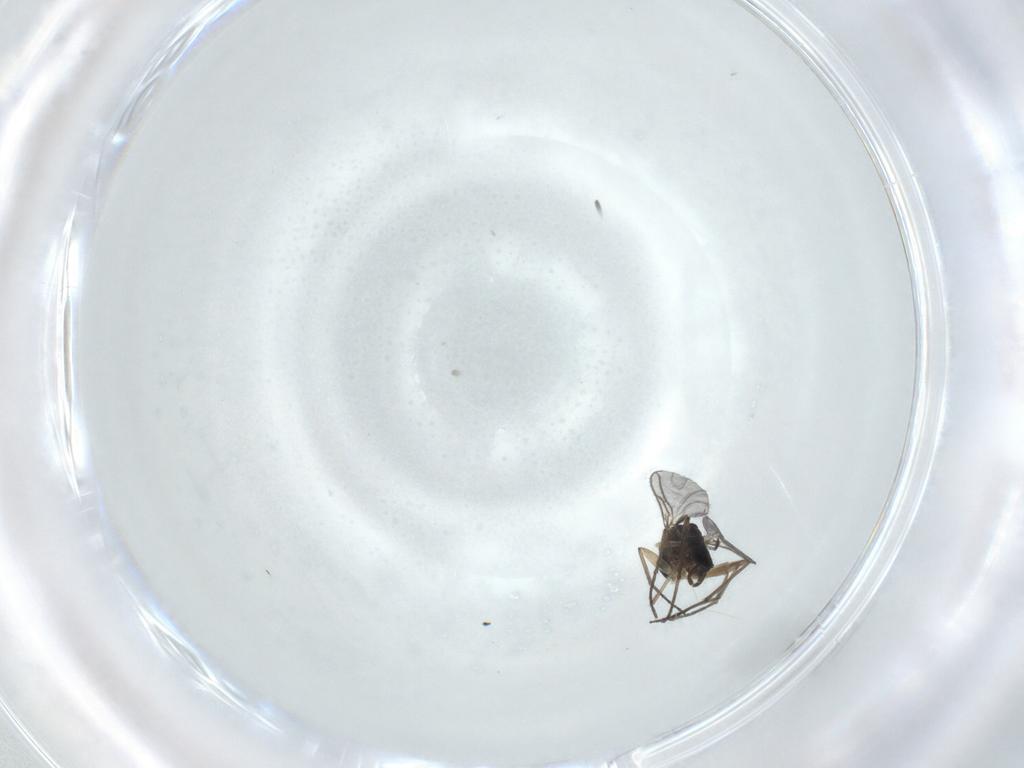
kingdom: Animalia
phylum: Arthropoda
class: Insecta
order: Diptera
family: Sciaridae
